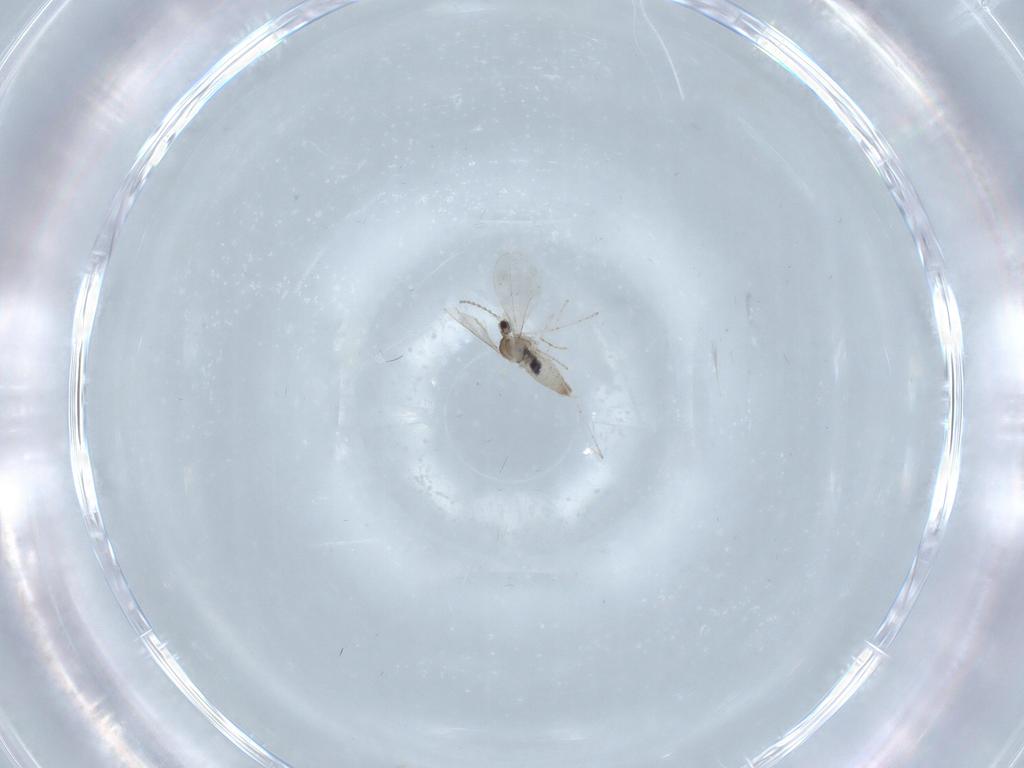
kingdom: Animalia
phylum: Arthropoda
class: Insecta
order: Diptera
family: Cecidomyiidae
